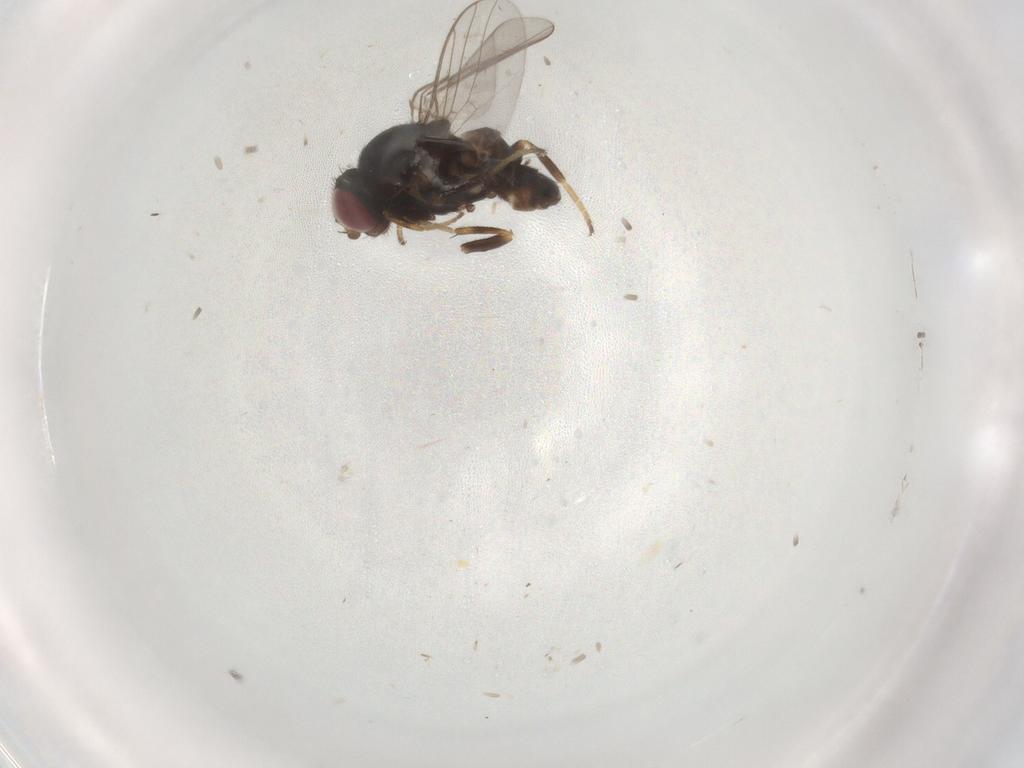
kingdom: Animalia
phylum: Arthropoda
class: Insecta
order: Diptera
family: Chloropidae
